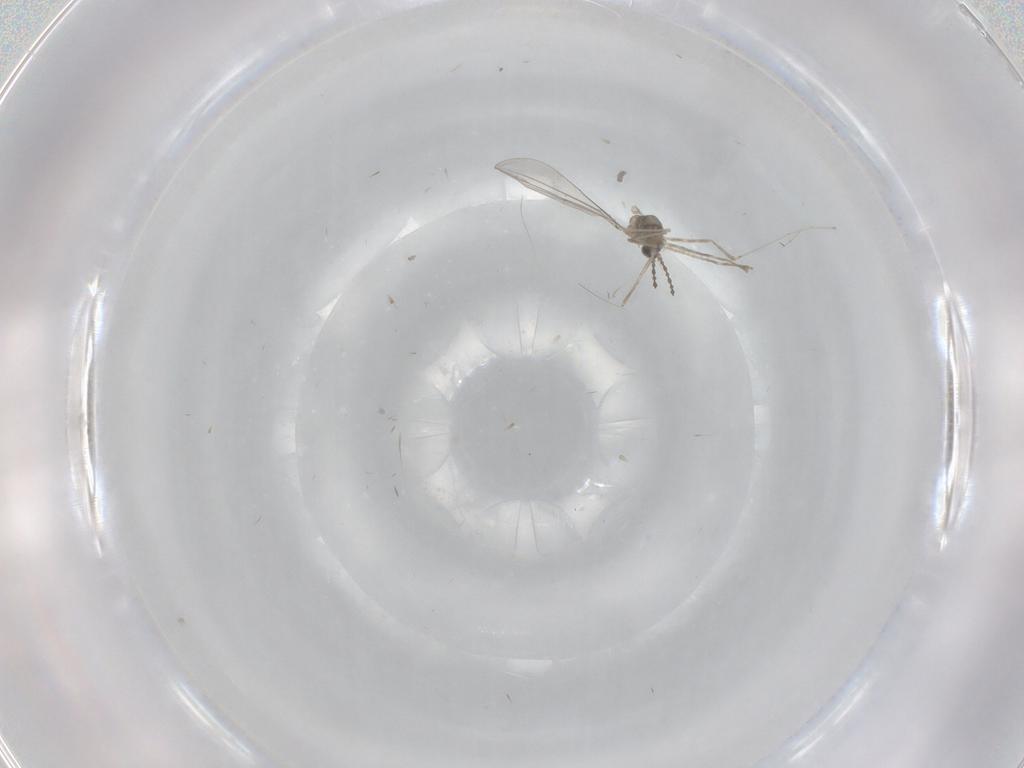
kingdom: Animalia
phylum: Arthropoda
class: Insecta
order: Diptera
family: Chironomidae
